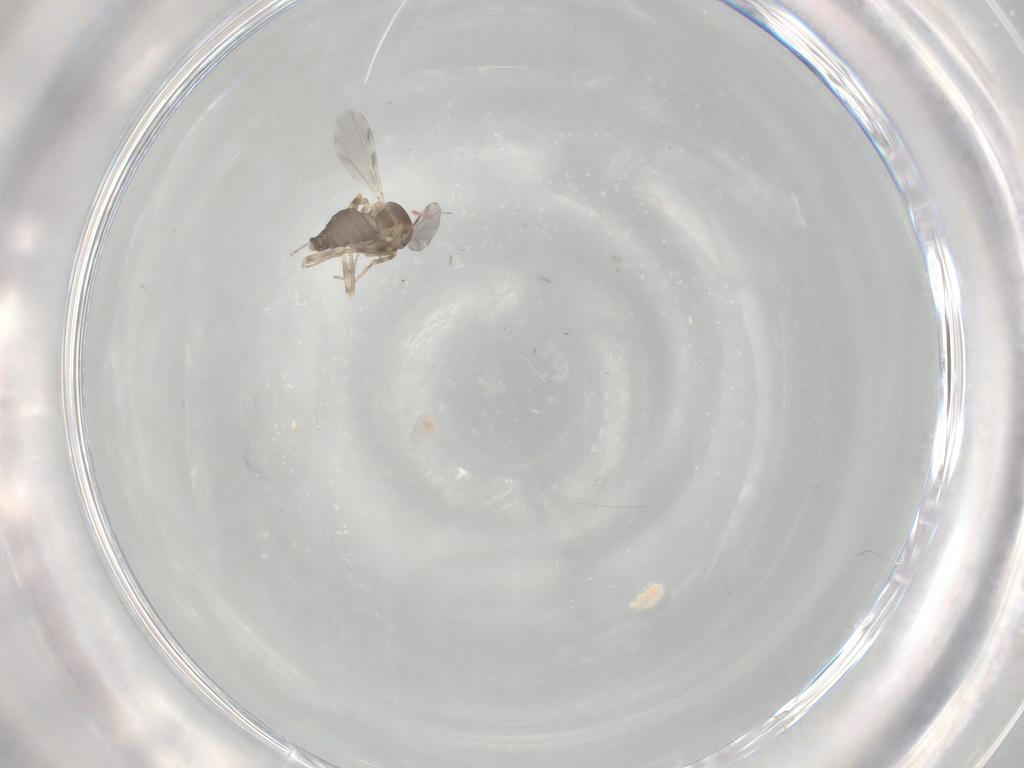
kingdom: Animalia
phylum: Arthropoda
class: Insecta
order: Diptera
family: Ceratopogonidae
